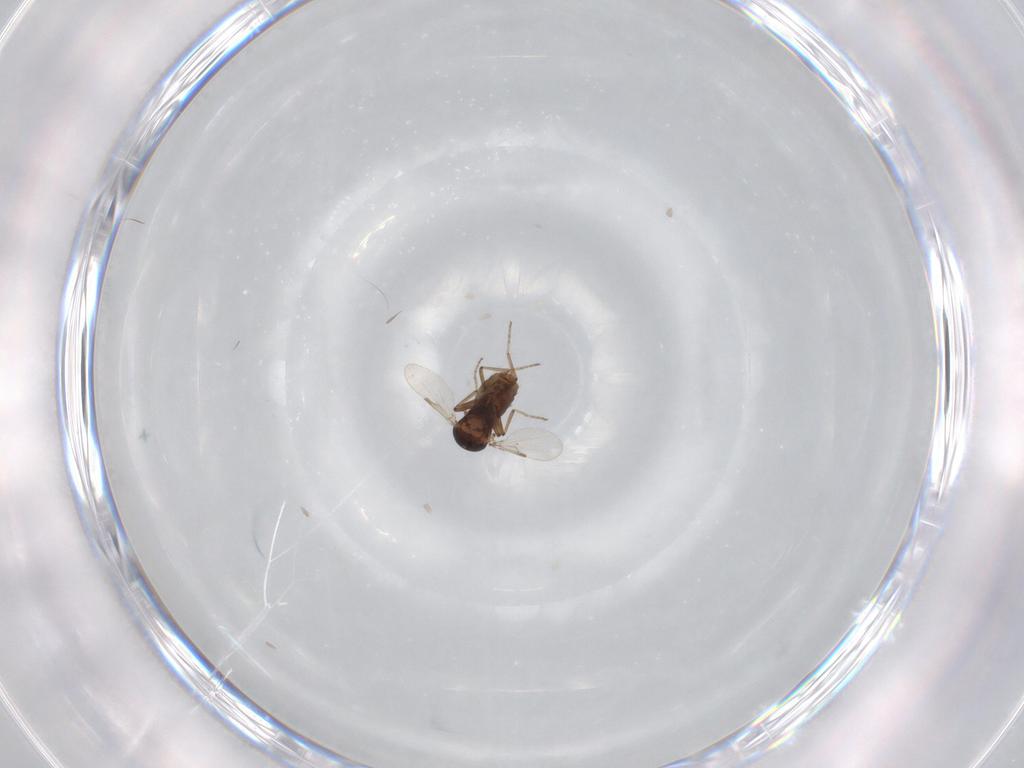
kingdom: Animalia
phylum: Arthropoda
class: Insecta
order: Diptera
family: Ceratopogonidae
